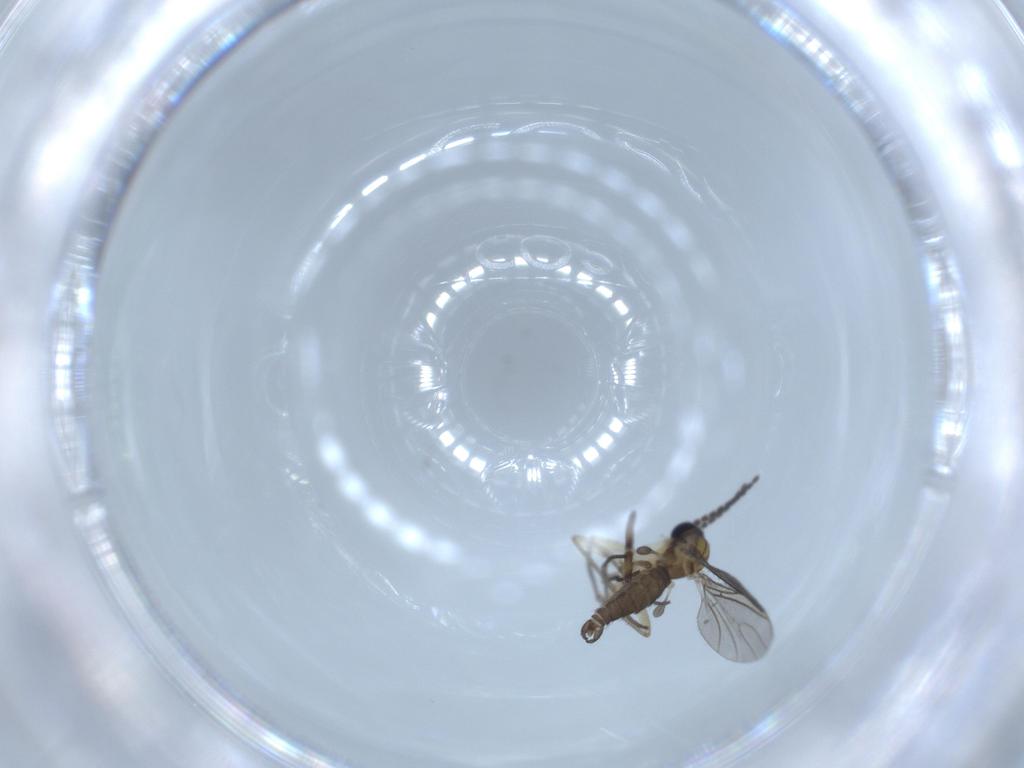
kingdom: Animalia
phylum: Arthropoda
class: Insecta
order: Diptera
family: Sciaridae
